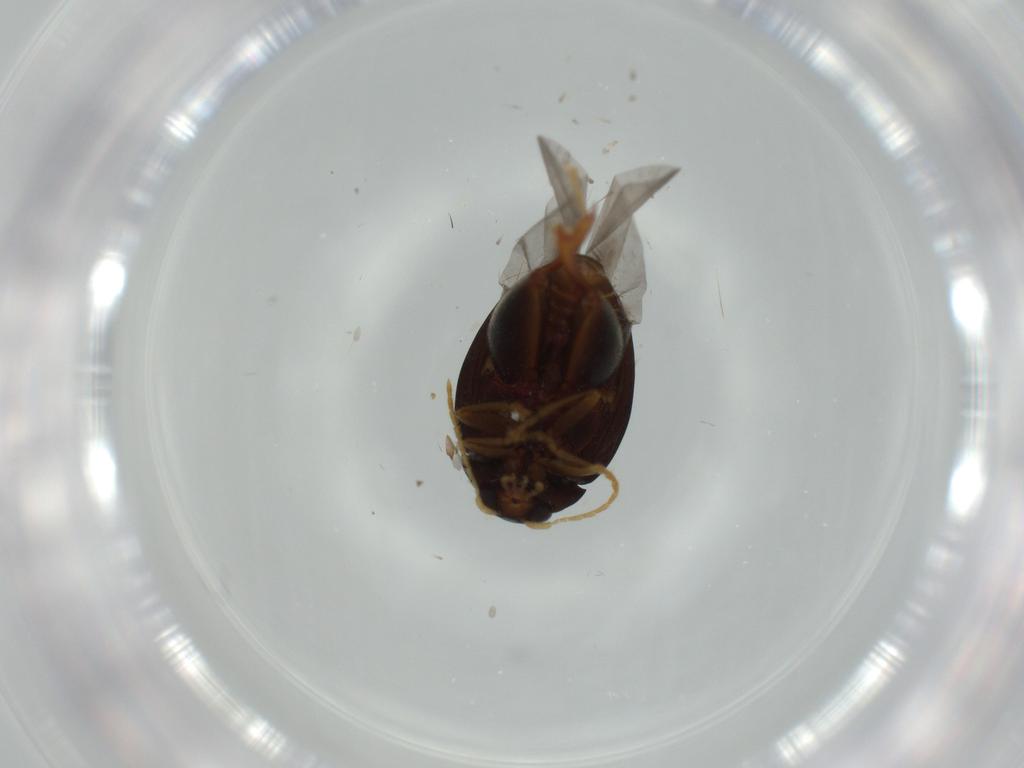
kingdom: Animalia
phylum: Arthropoda
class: Insecta
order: Coleoptera
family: Chrysomelidae
